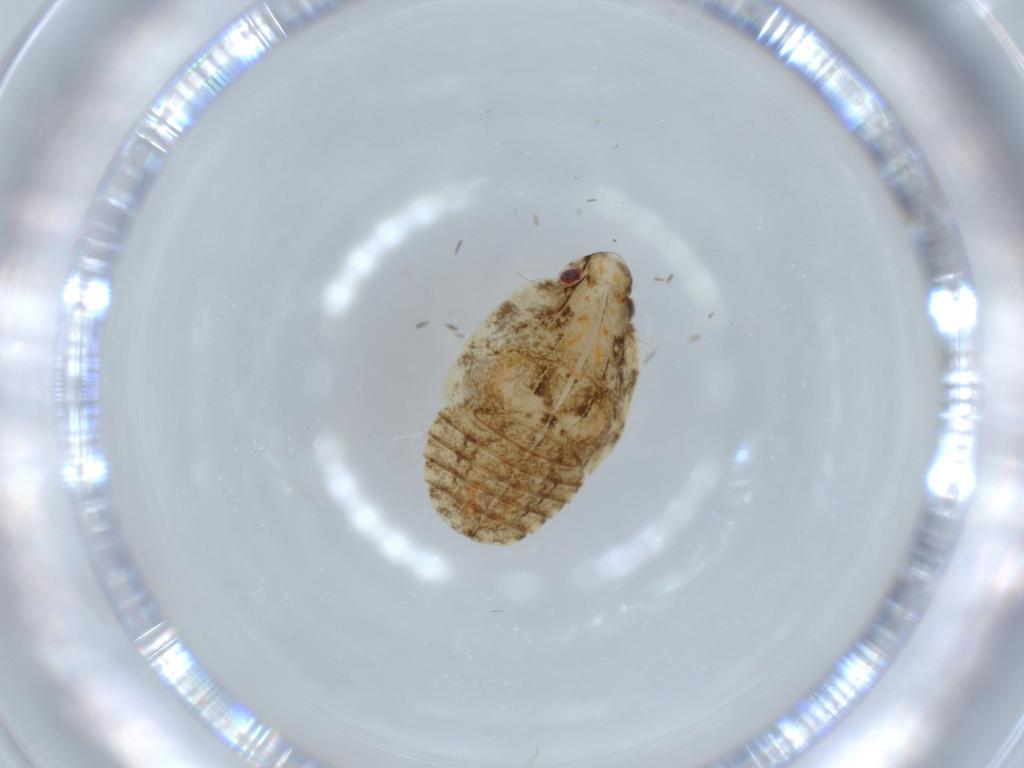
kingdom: Animalia
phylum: Arthropoda
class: Insecta
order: Hemiptera
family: Flatidae
